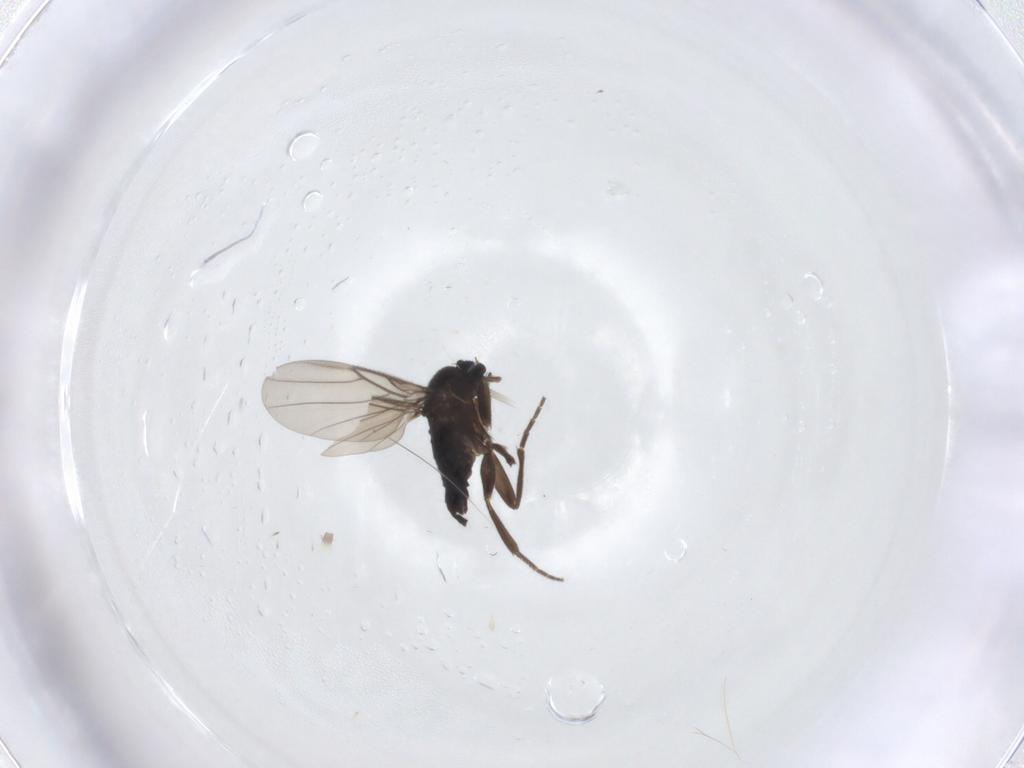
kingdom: Animalia
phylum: Arthropoda
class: Insecta
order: Diptera
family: Phoridae
